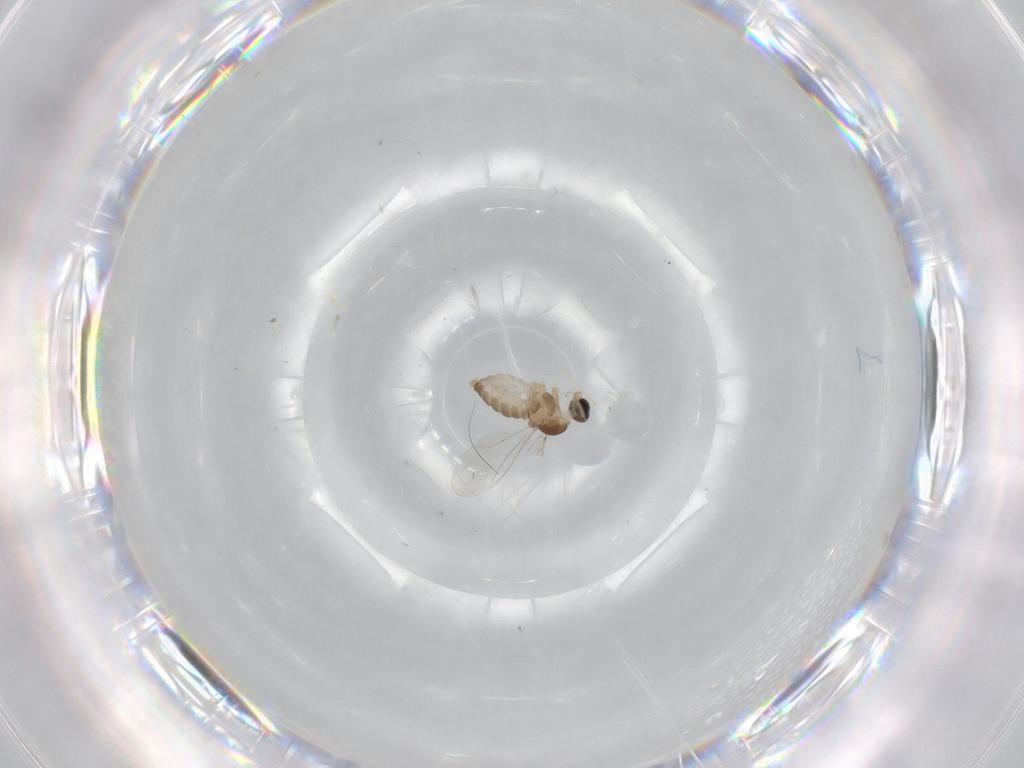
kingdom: Animalia
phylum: Arthropoda
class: Insecta
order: Diptera
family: Cecidomyiidae
